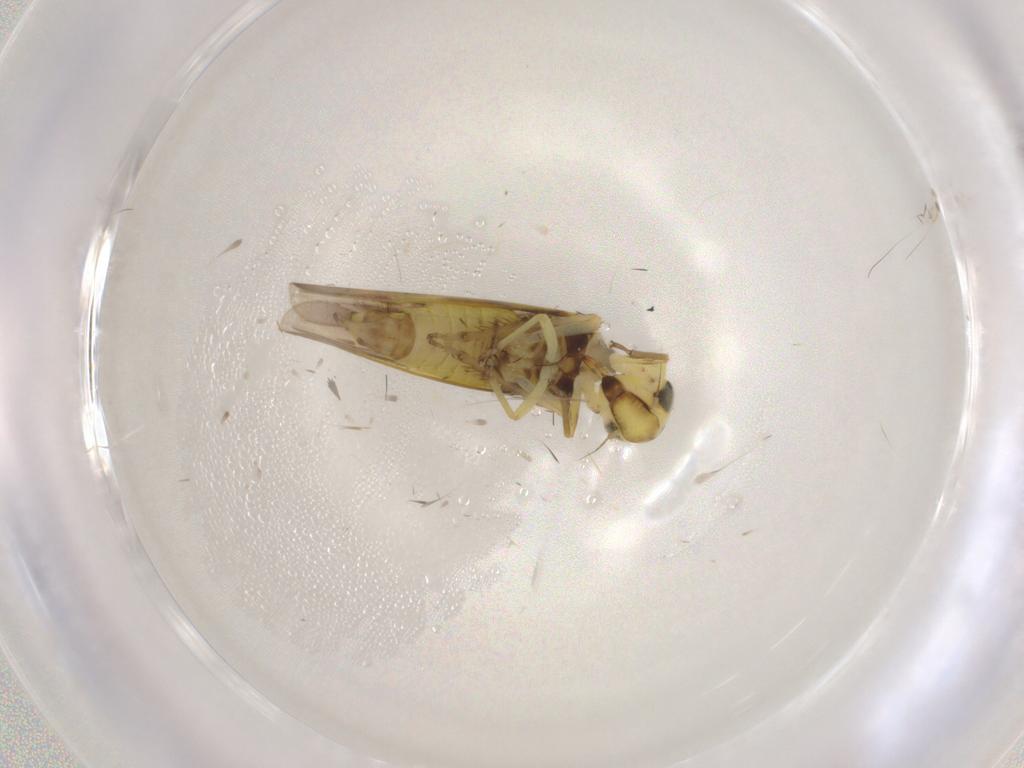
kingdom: Animalia
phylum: Arthropoda
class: Insecta
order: Hemiptera
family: Cicadellidae
